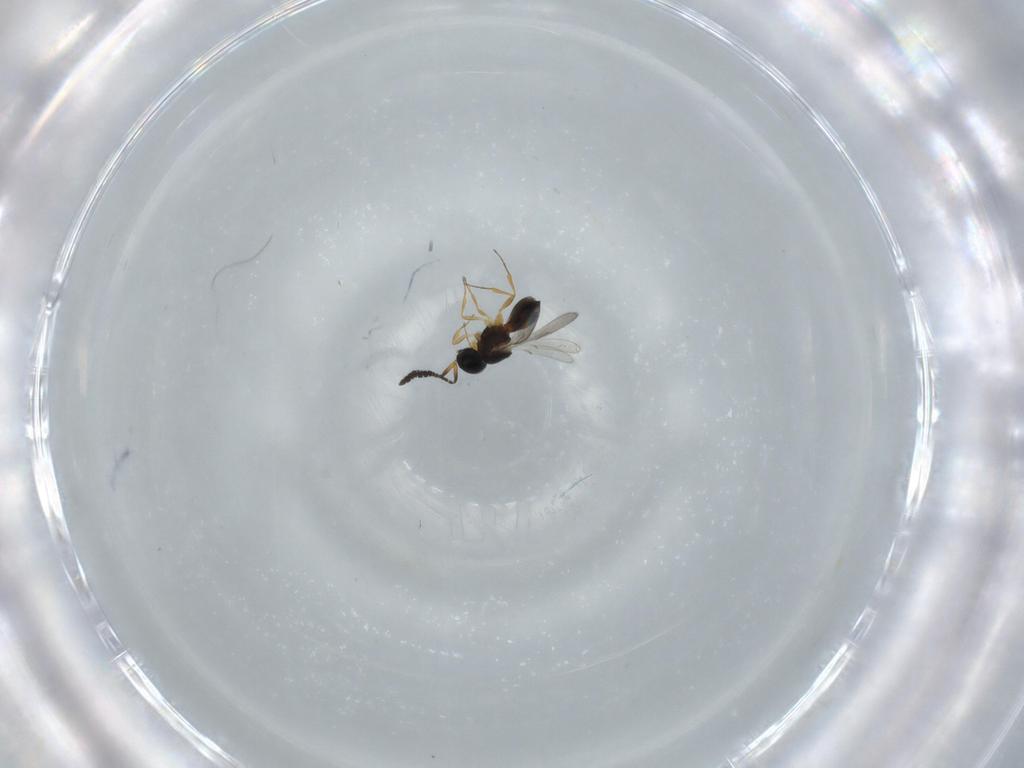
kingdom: Animalia
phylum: Arthropoda
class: Insecta
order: Hymenoptera
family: Scelionidae
